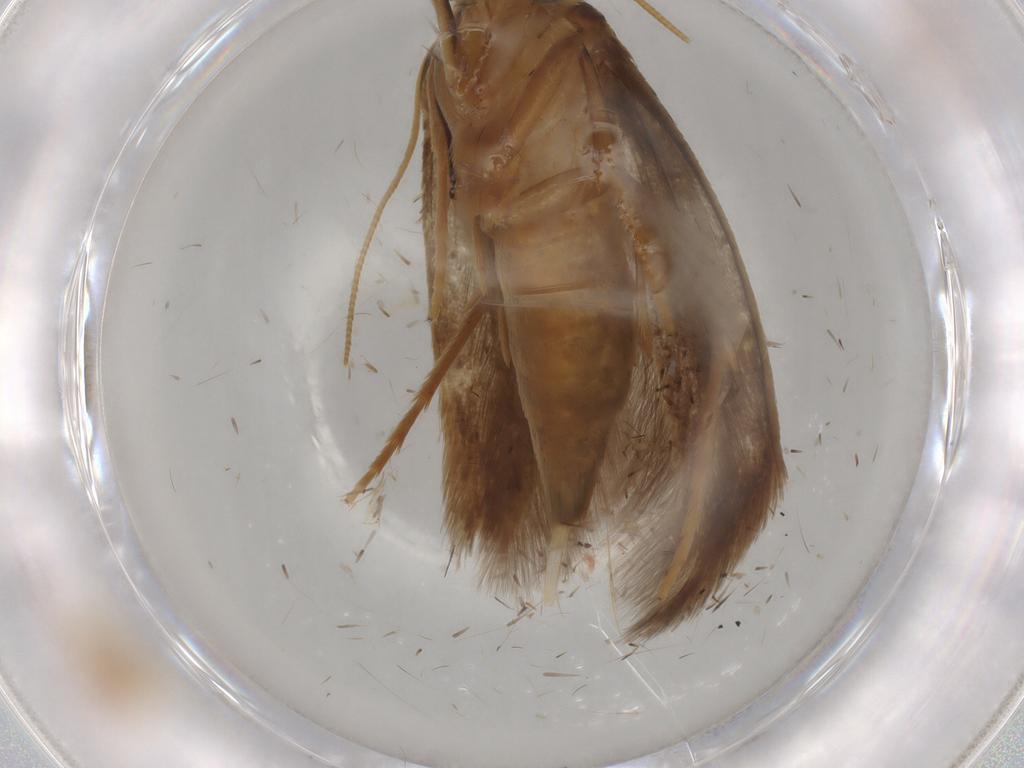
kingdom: Animalia
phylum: Arthropoda
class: Insecta
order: Lepidoptera
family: Tineidae
